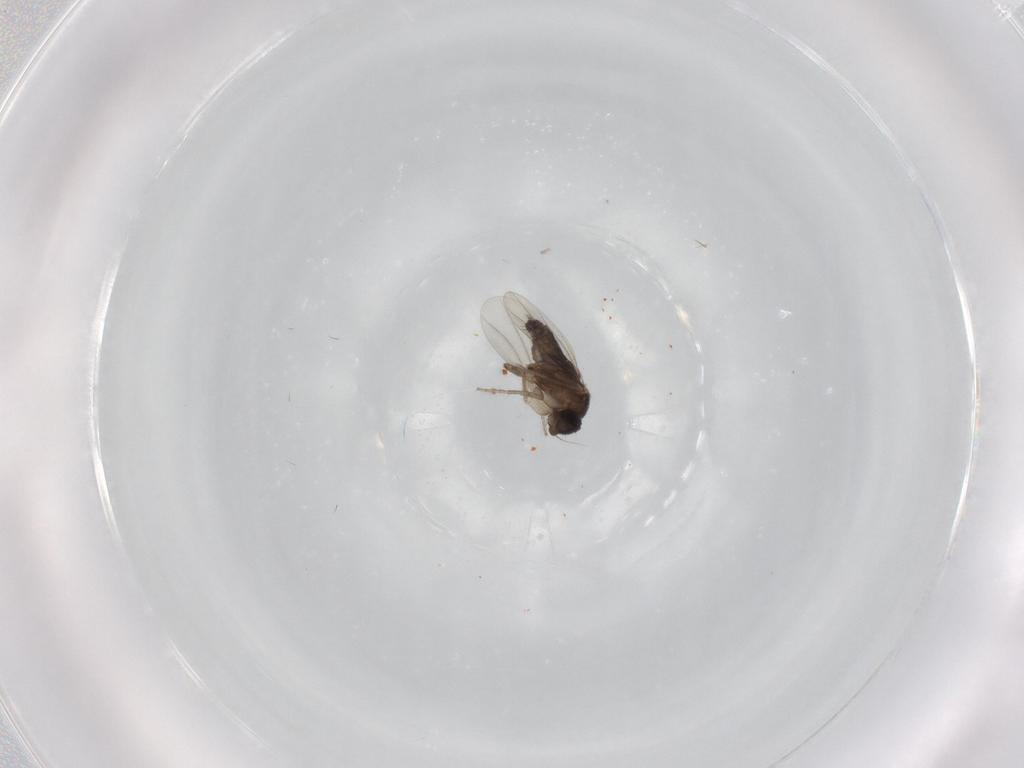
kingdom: Animalia
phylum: Arthropoda
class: Insecta
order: Diptera
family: Phoridae
